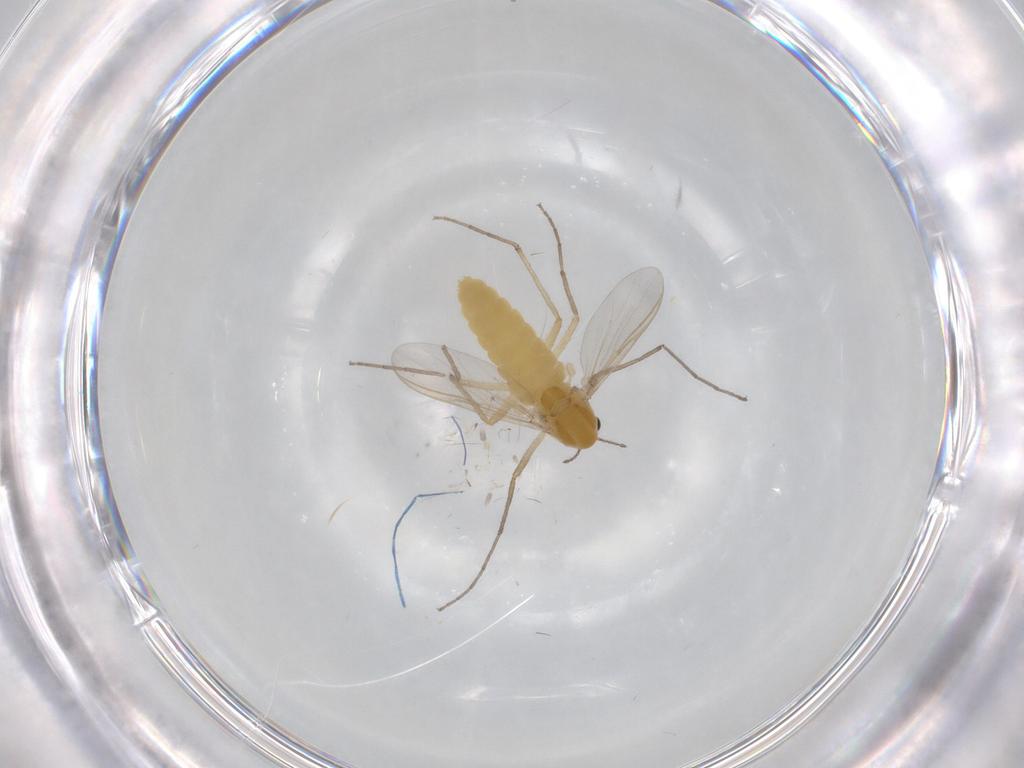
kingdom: Animalia
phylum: Arthropoda
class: Insecta
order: Diptera
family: Chironomidae
